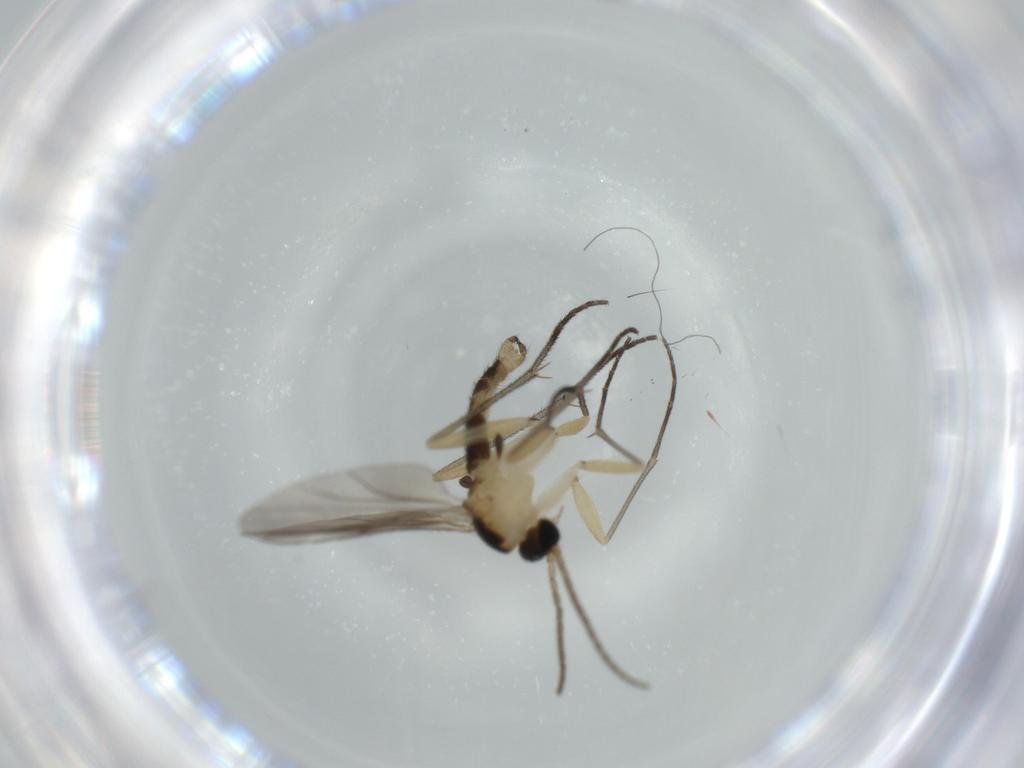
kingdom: Animalia
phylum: Arthropoda
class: Insecta
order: Diptera
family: Sciaridae
